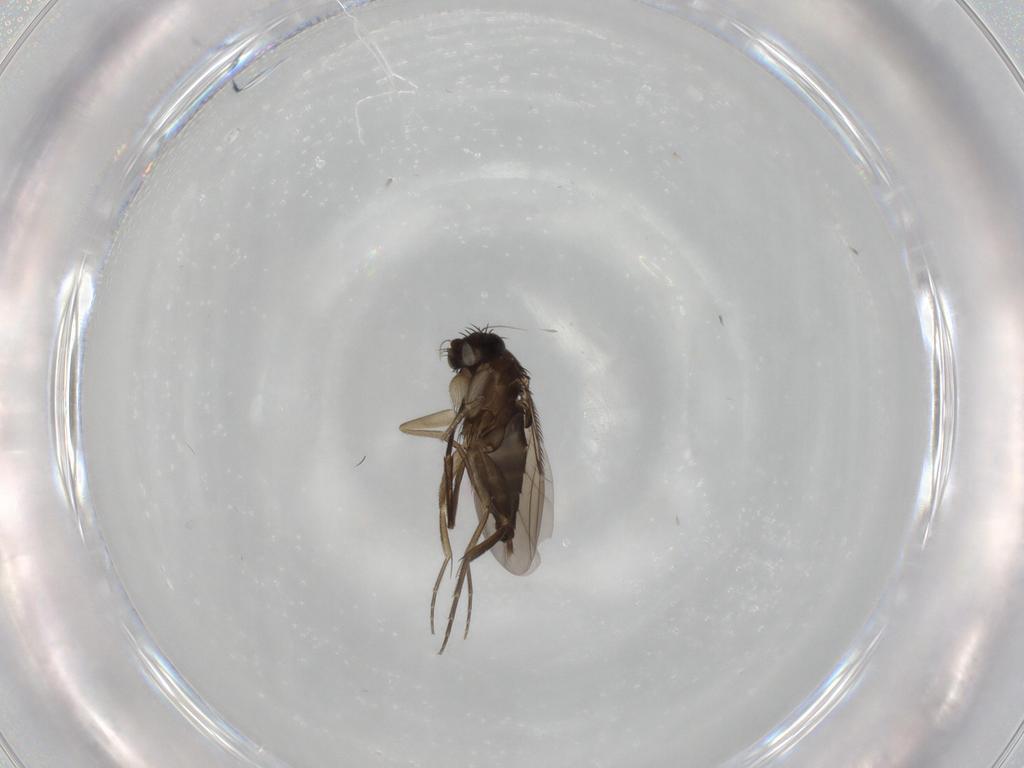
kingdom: Animalia
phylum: Arthropoda
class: Insecta
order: Diptera
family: Phoridae
